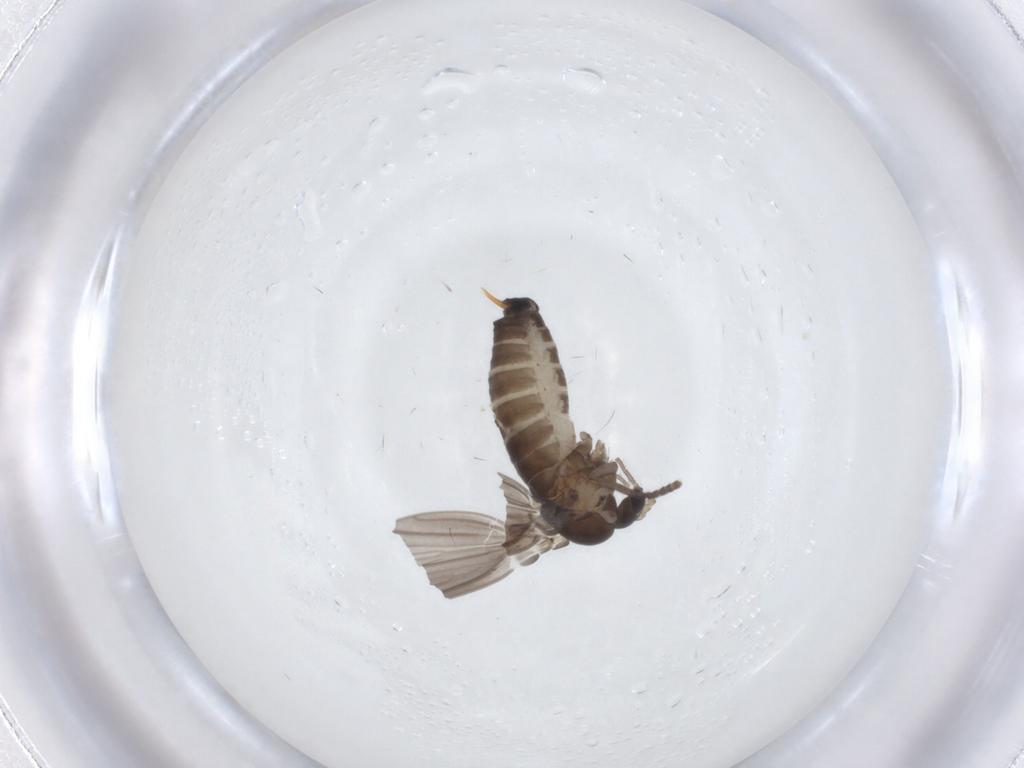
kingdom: Animalia
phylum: Arthropoda
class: Insecta
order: Diptera
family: Psychodidae
